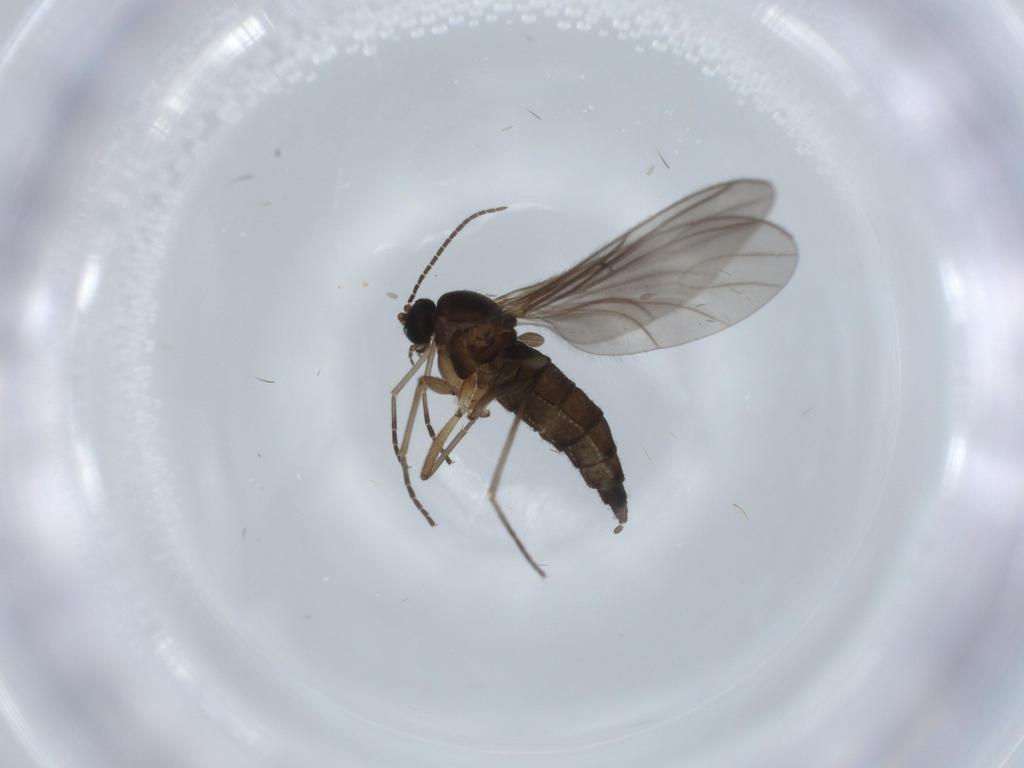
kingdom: Animalia
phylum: Arthropoda
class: Insecta
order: Diptera
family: Sciaridae
